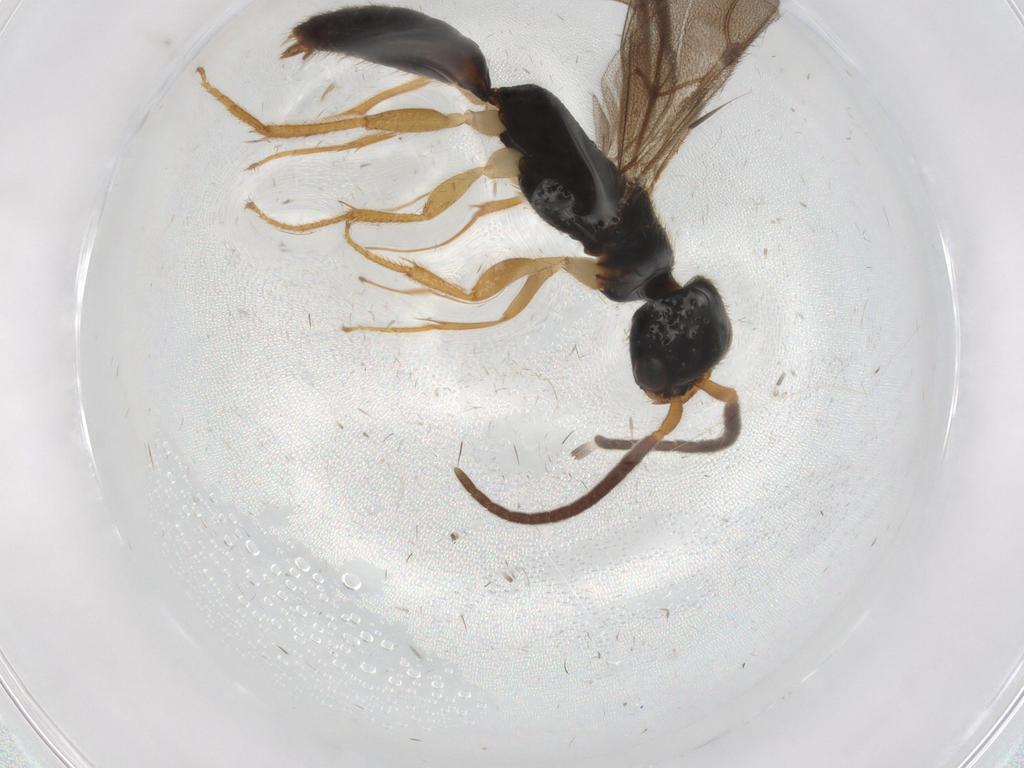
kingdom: Animalia
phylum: Arthropoda
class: Insecta
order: Hymenoptera
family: Bethylidae
